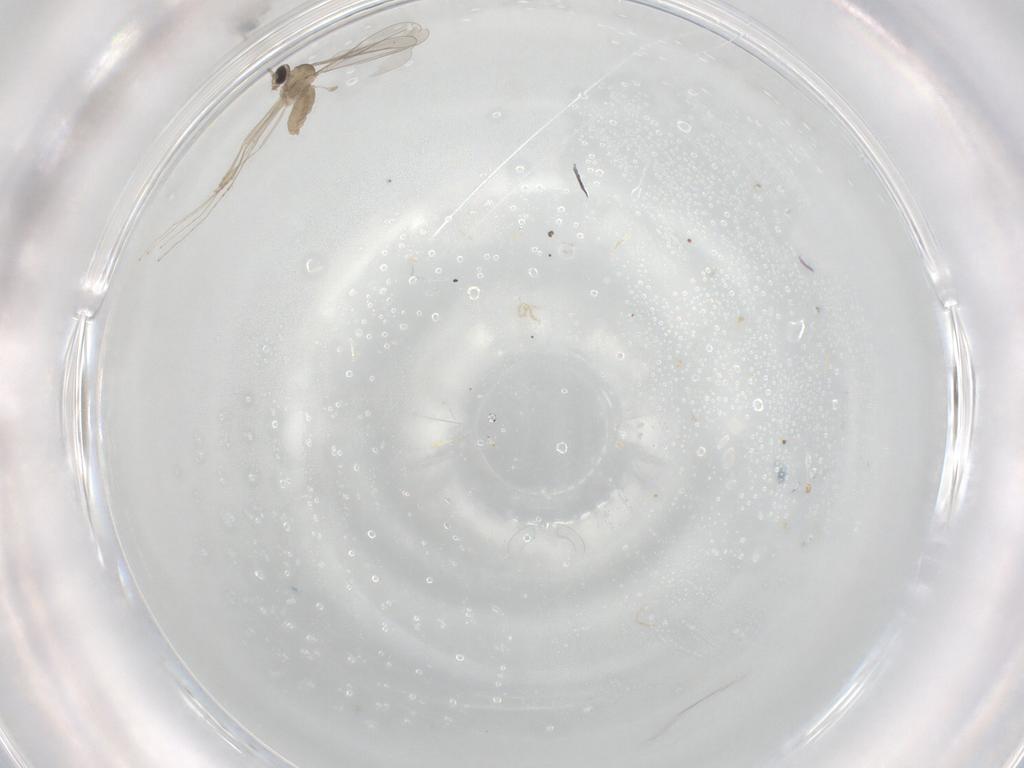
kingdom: Animalia
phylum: Arthropoda
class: Insecta
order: Diptera
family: Cecidomyiidae
